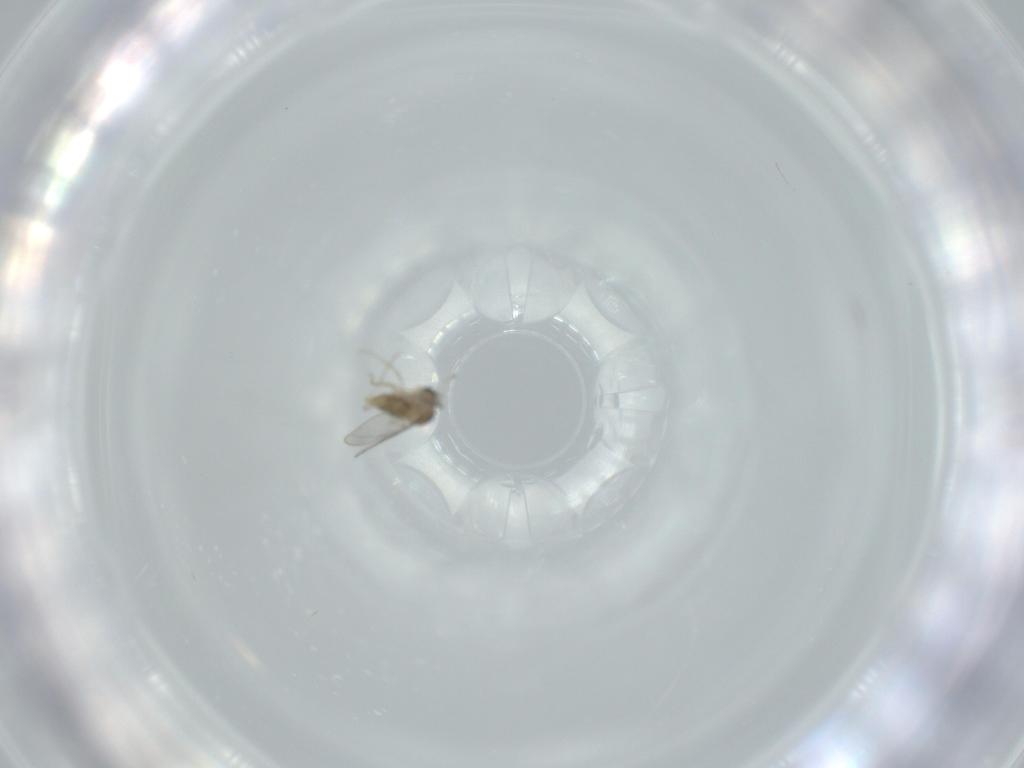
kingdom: Animalia
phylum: Arthropoda
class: Insecta
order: Diptera
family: Cecidomyiidae
